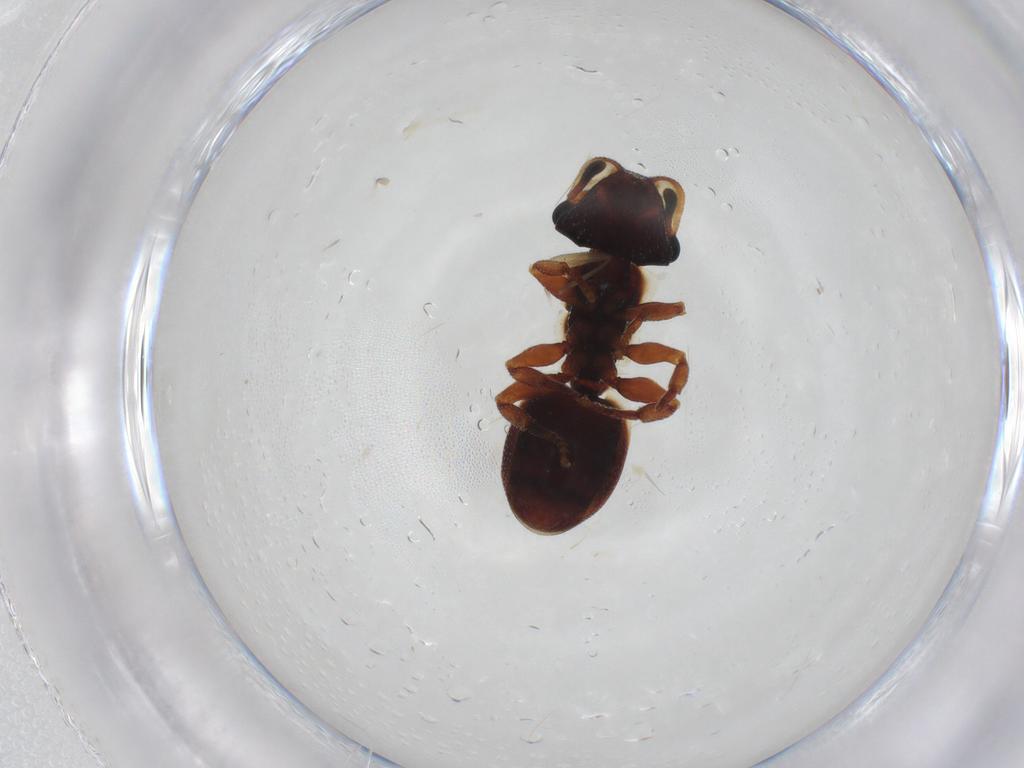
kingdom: Animalia
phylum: Arthropoda
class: Insecta
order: Hymenoptera
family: Formicidae
